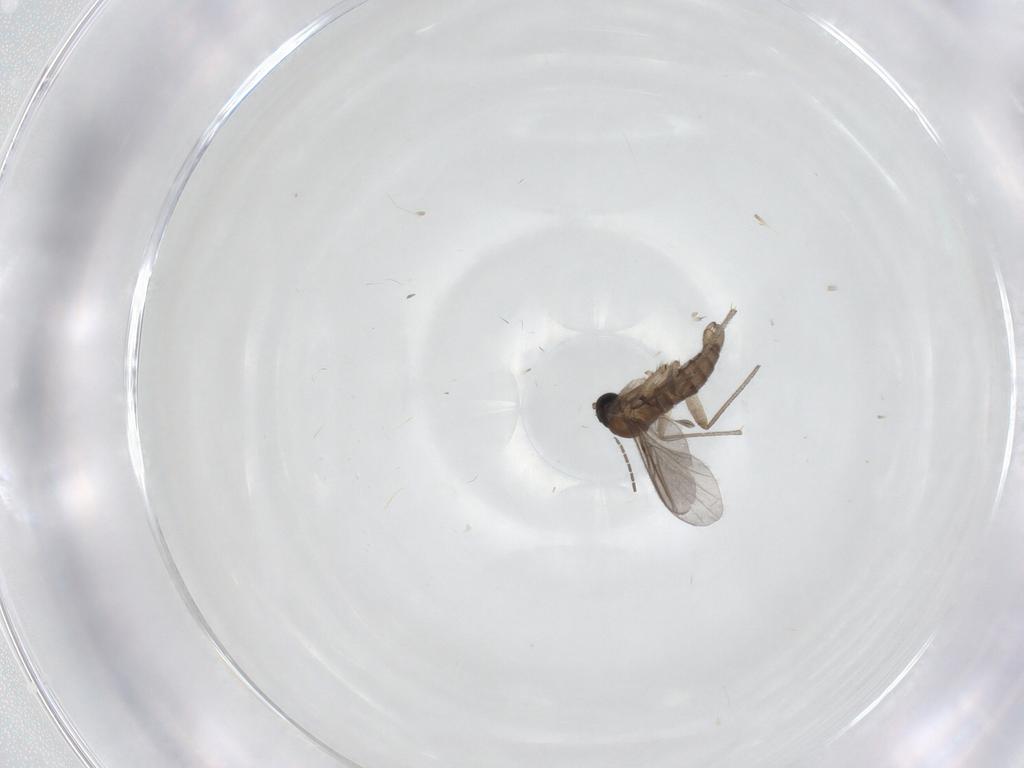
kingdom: Animalia
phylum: Arthropoda
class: Insecta
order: Diptera
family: Sciaridae
